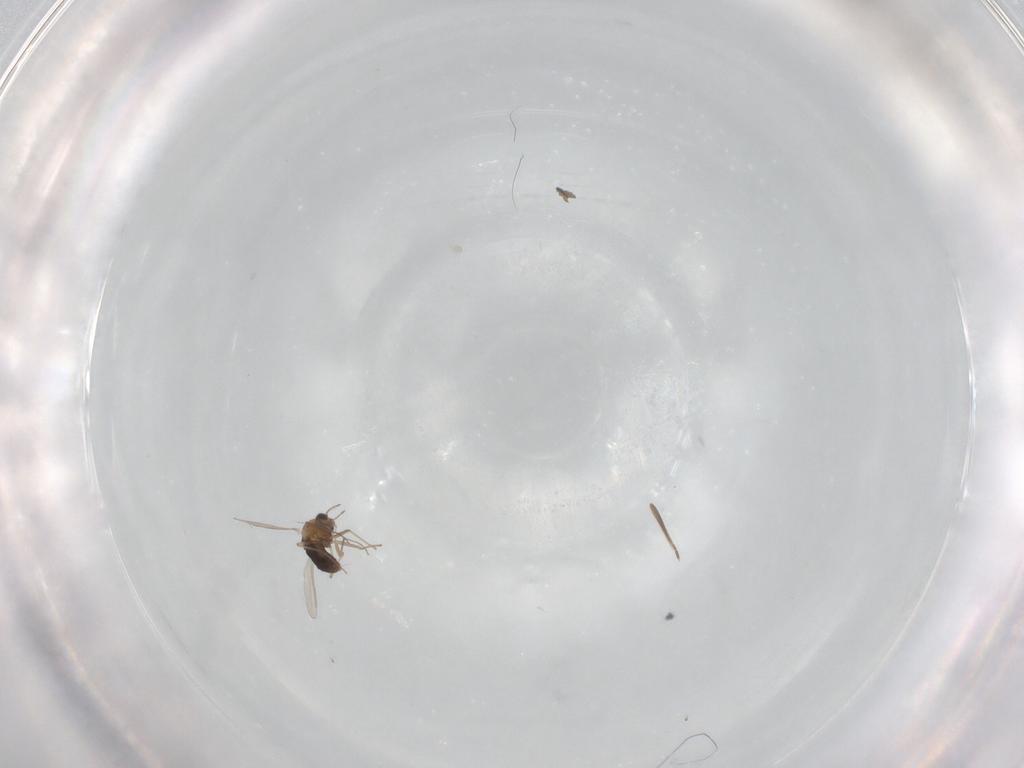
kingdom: Animalia
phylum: Arthropoda
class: Insecta
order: Diptera
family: Chironomidae
